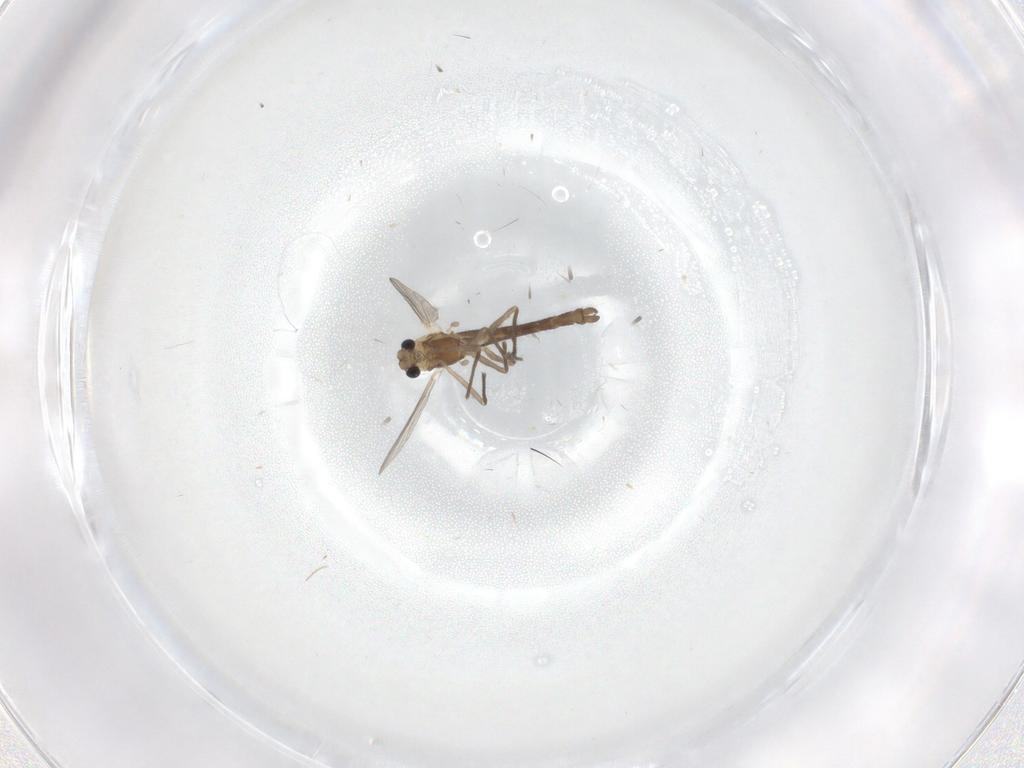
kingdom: Animalia
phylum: Arthropoda
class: Insecta
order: Diptera
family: Chironomidae
